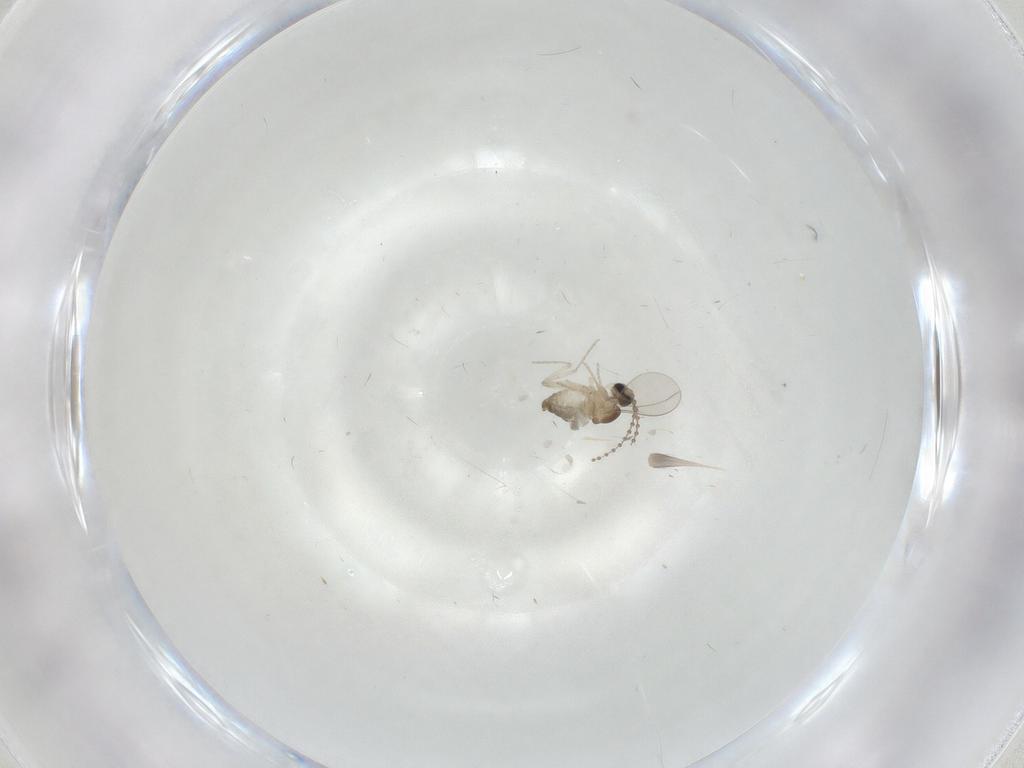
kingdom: Animalia
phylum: Arthropoda
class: Insecta
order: Diptera
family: Cecidomyiidae
